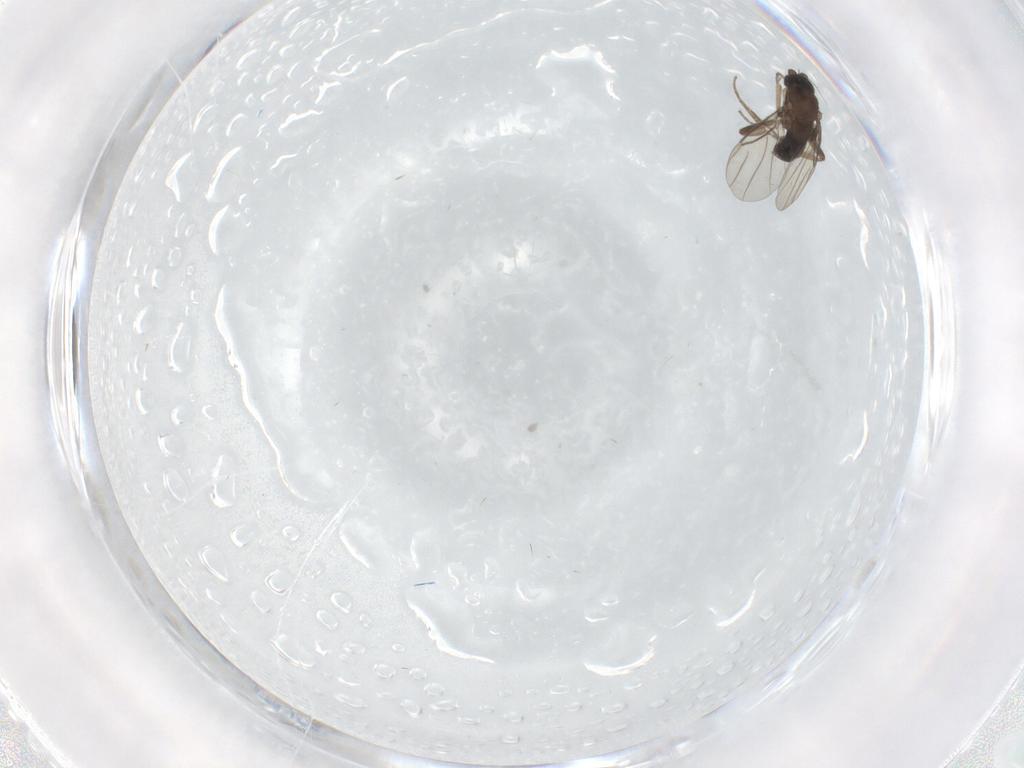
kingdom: Animalia
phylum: Arthropoda
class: Insecta
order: Diptera
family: Phoridae
